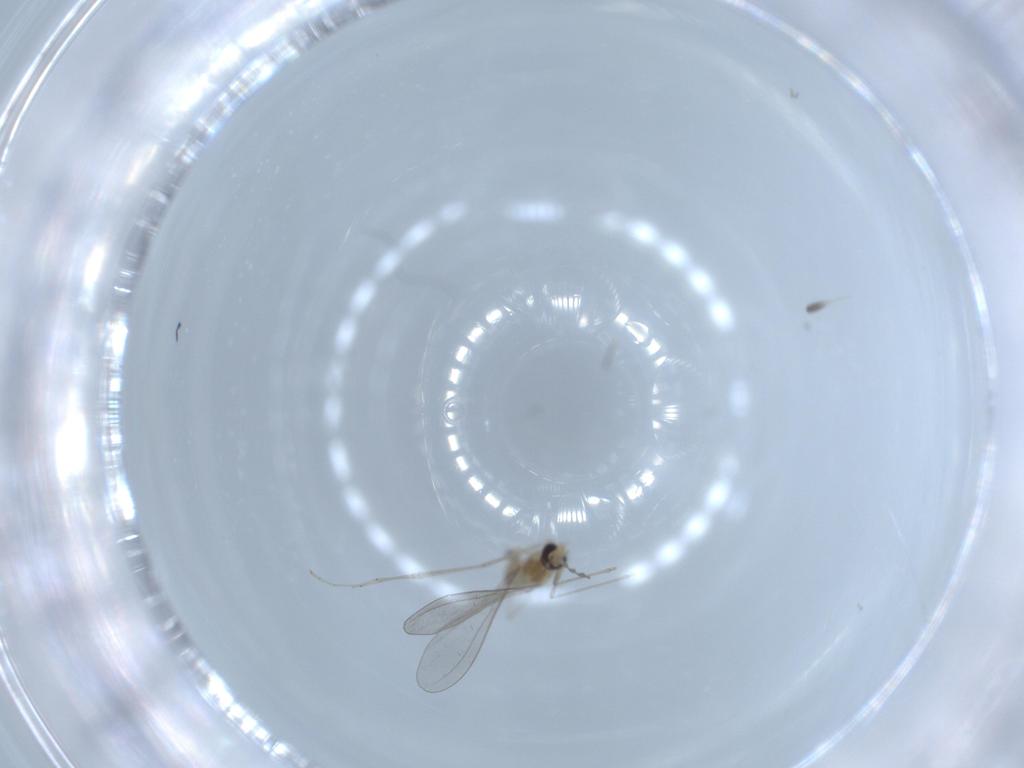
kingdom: Animalia
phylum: Arthropoda
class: Insecta
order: Diptera
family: Cecidomyiidae
